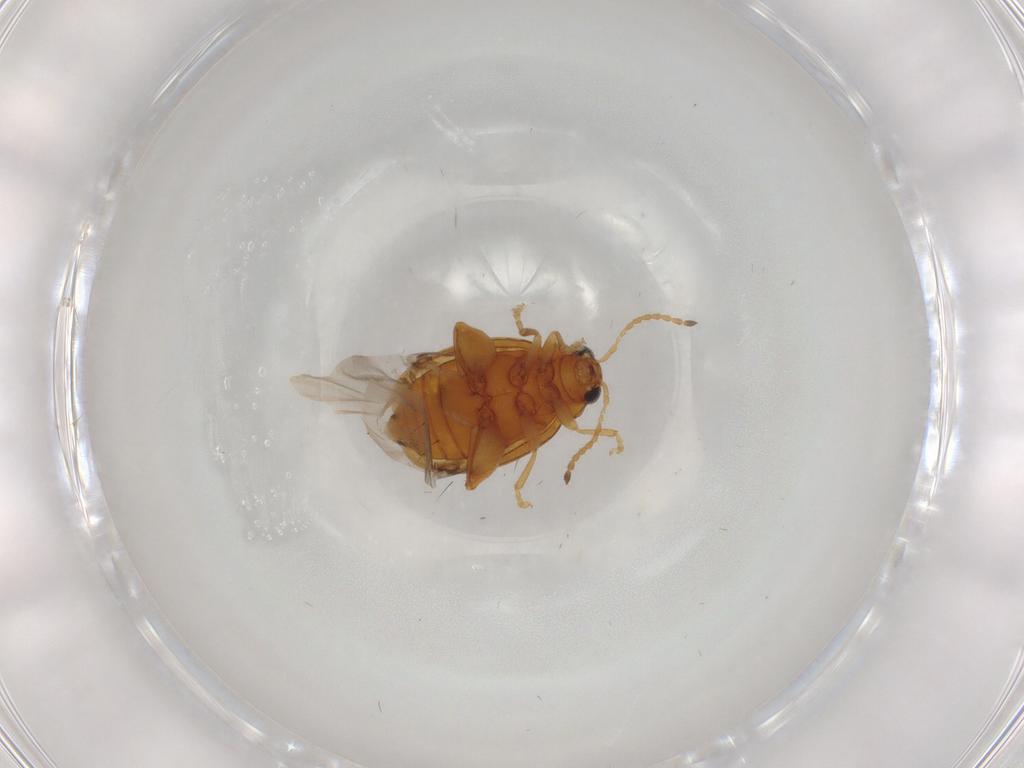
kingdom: Animalia
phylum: Arthropoda
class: Insecta
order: Coleoptera
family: Chrysomelidae
